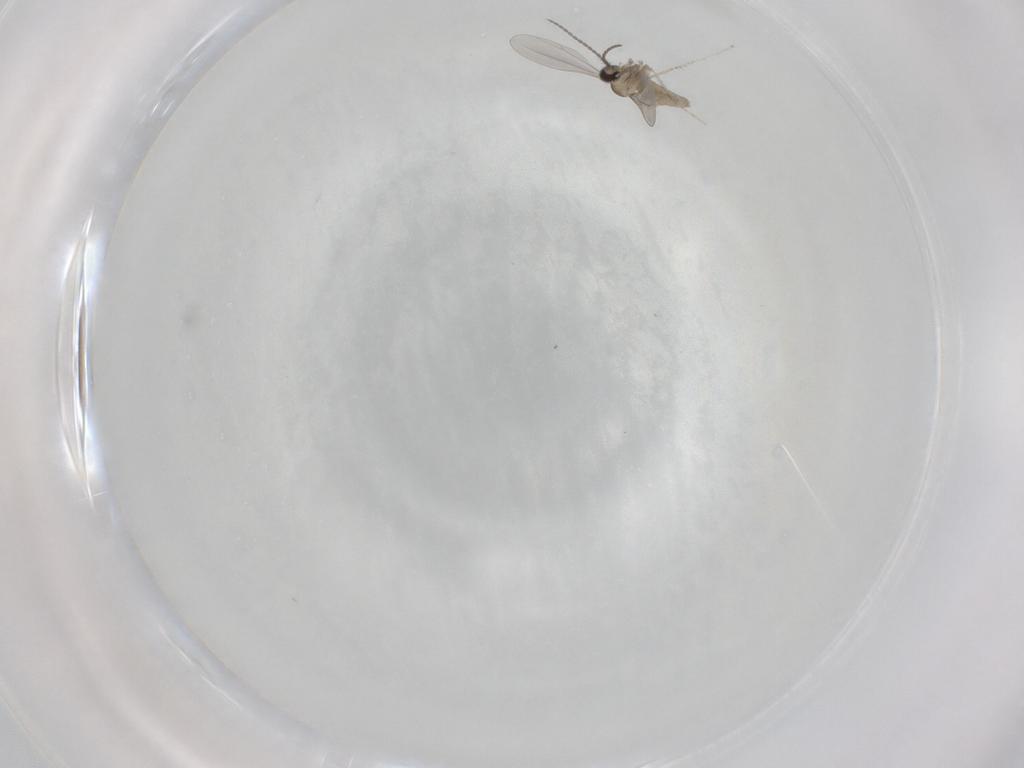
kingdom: Animalia
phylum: Arthropoda
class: Insecta
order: Diptera
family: Cecidomyiidae
